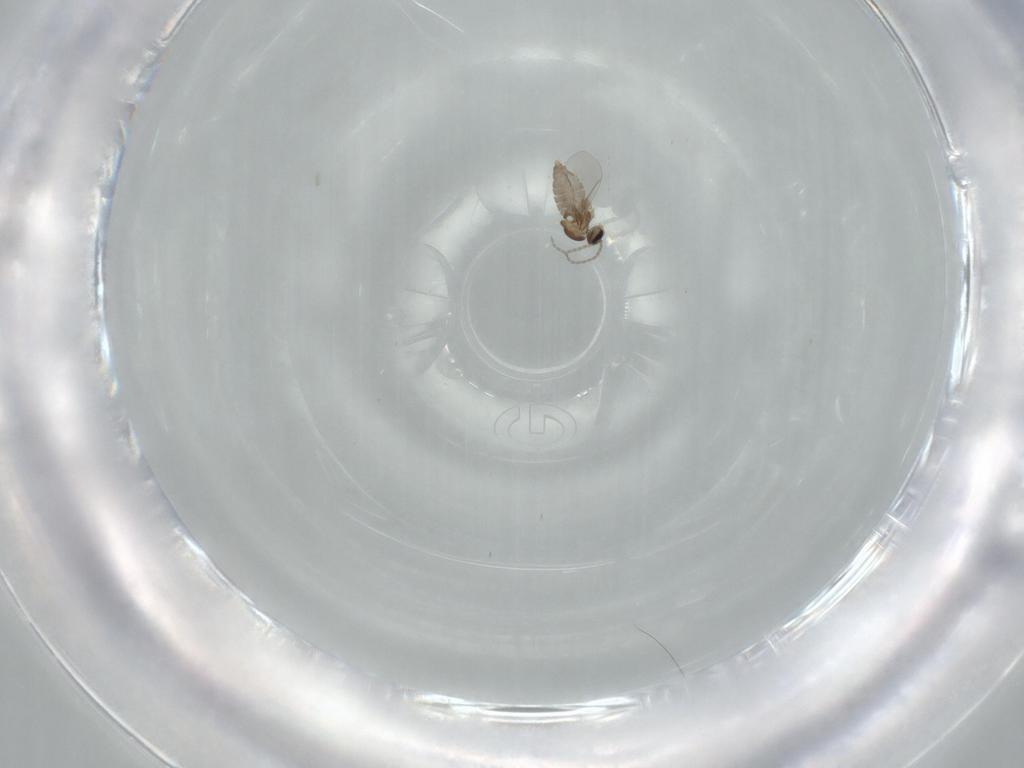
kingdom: Animalia
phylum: Arthropoda
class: Insecta
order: Diptera
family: Cecidomyiidae
